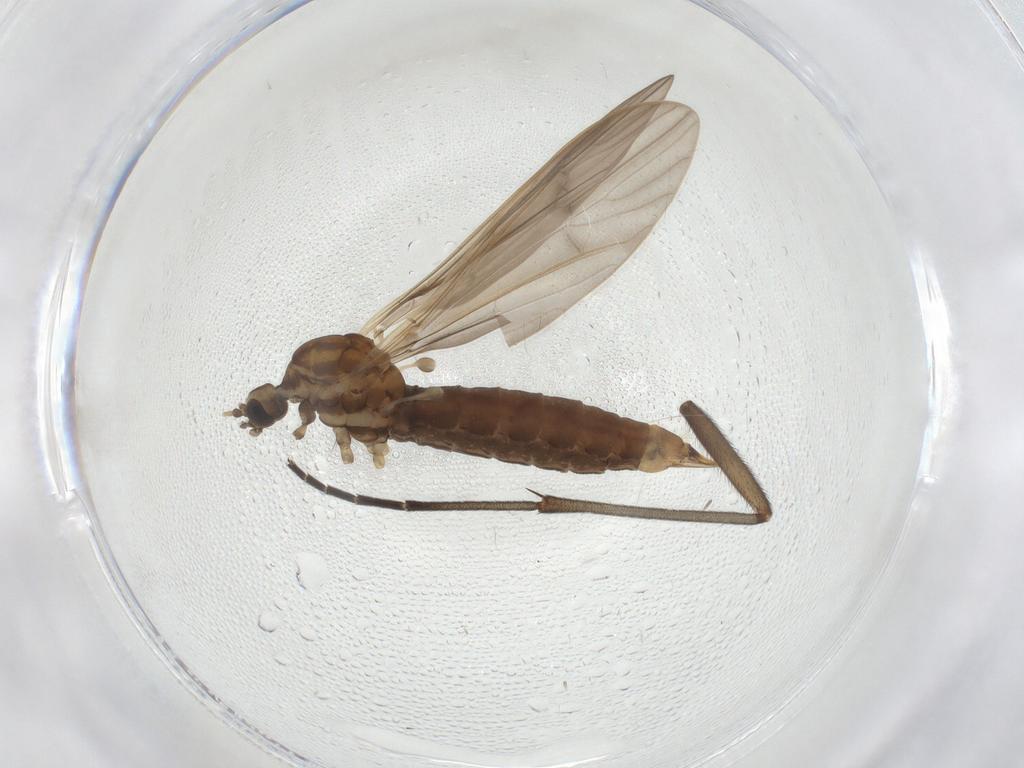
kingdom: Animalia
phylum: Arthropoda
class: Insecta
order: Diptera
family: Limoniidae
